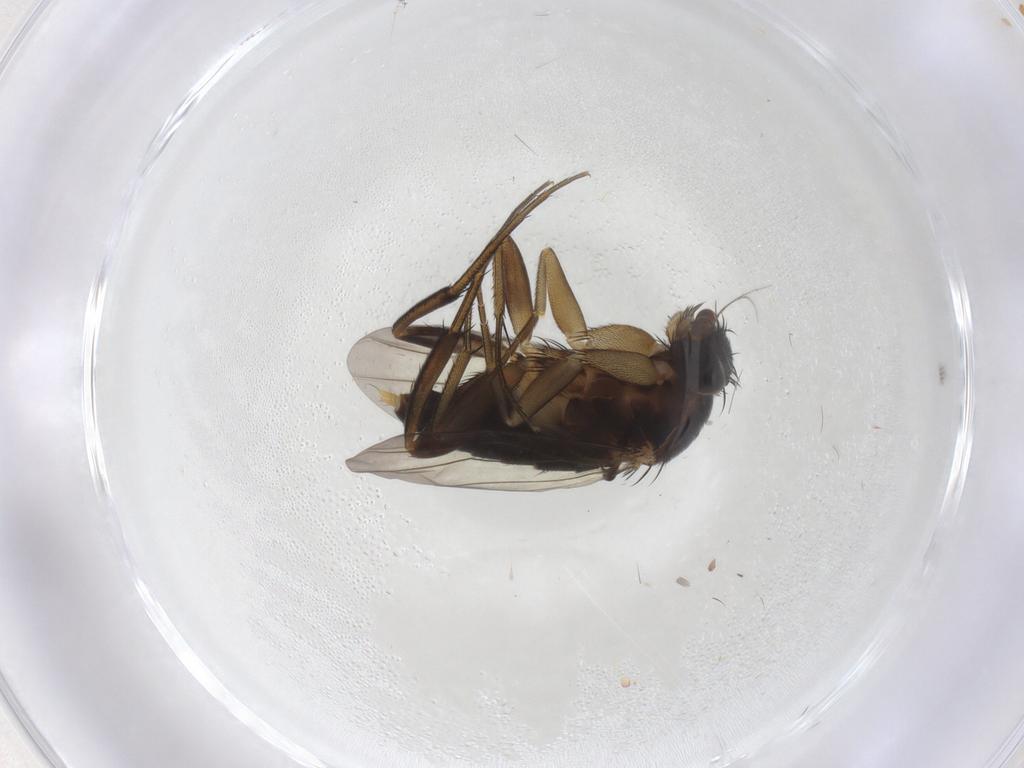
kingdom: Animalia
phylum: Arthropoda
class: Insecta
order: Diptera
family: Phoridae
